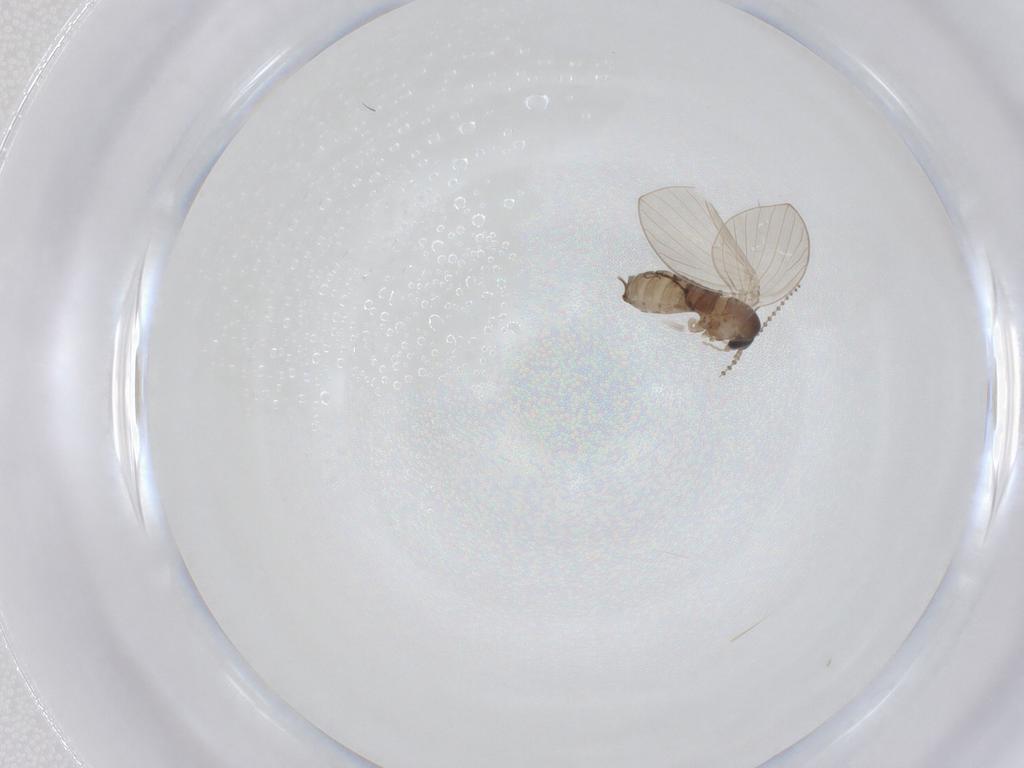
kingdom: Animalia
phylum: Arthropoda
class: Insecta
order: Diptera
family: Psychodidae
